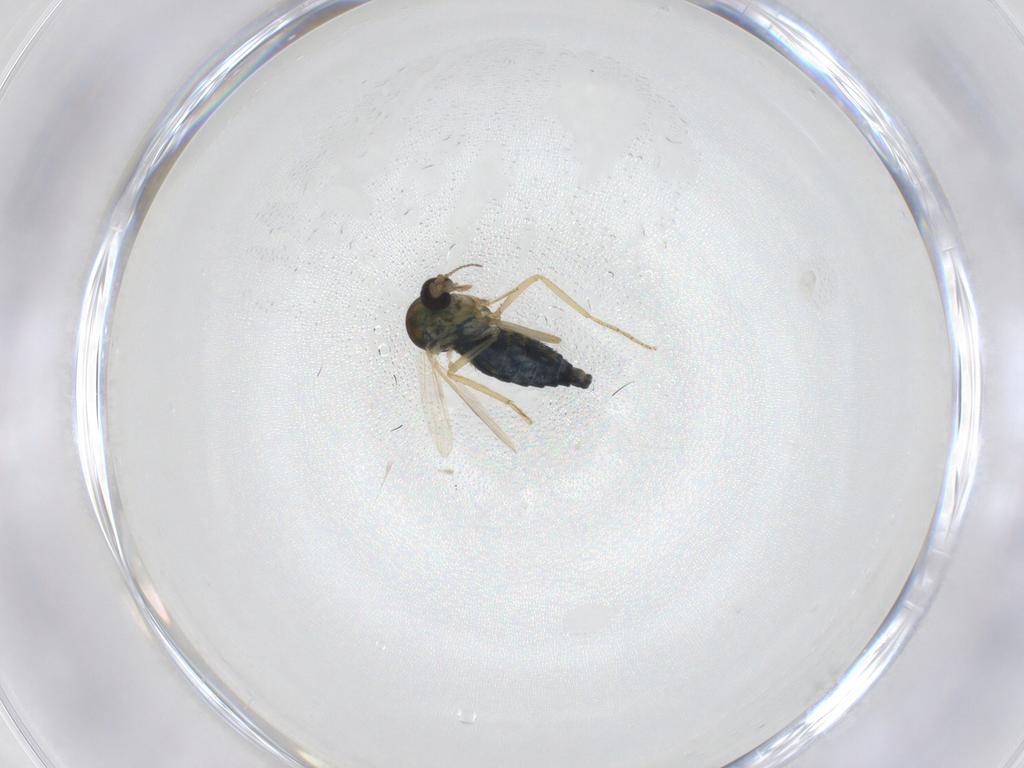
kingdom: Animalia
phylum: Arthropoda
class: Insecta
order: Diptera
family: Ceratopogonidae
